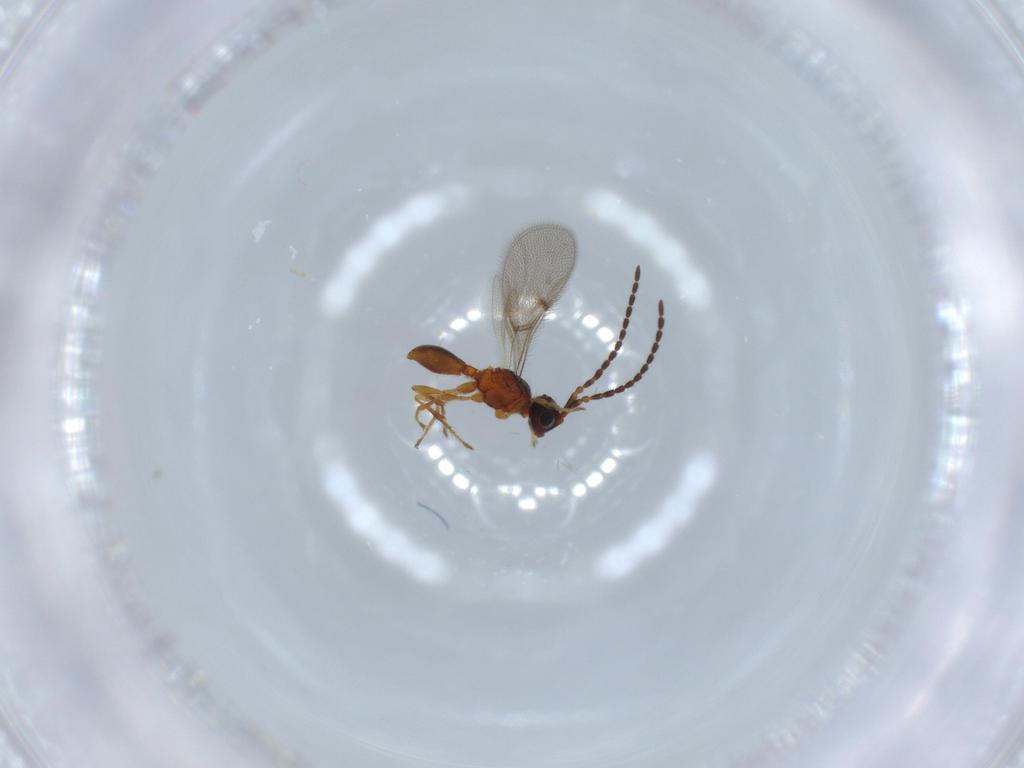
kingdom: Animalia
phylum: Arthropoda
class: Insecta
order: Hymenoptera
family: Diapriidae
